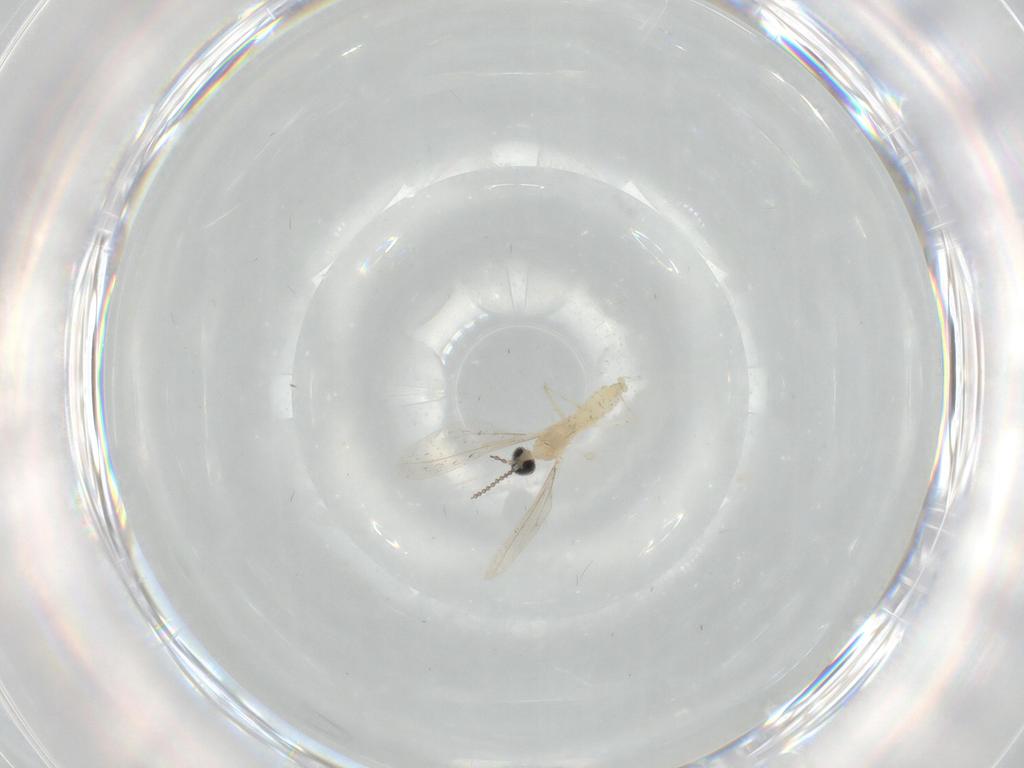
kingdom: Animalia
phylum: Arthropoda
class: Insecta
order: Diptera
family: Cecidomyiidae
